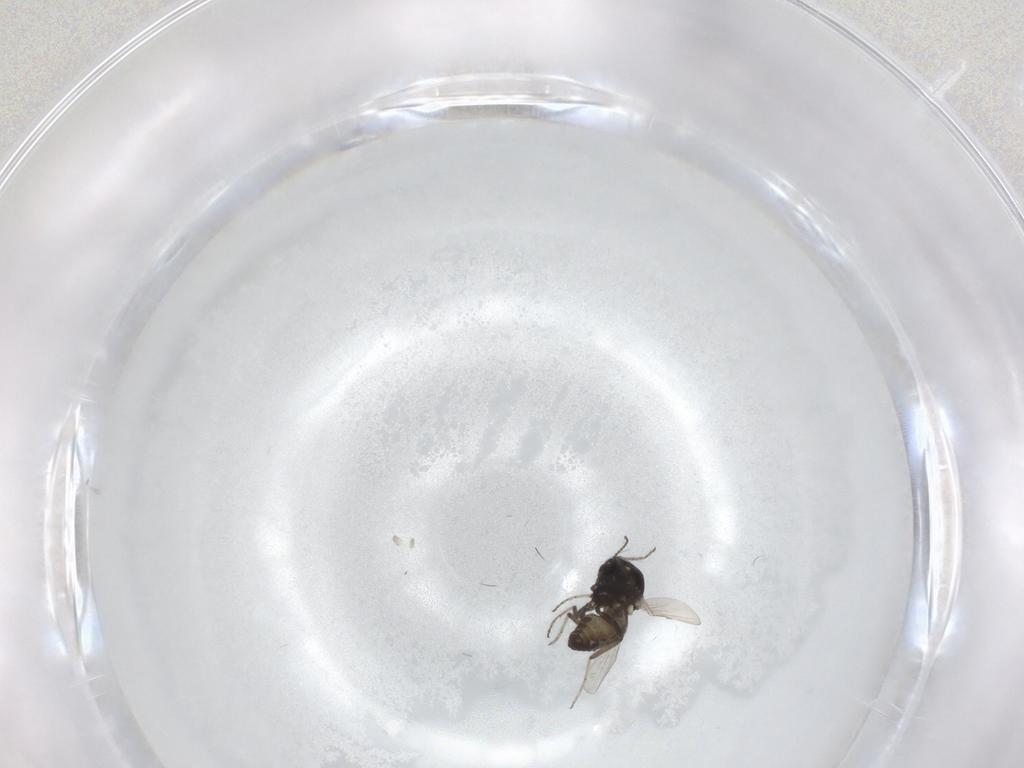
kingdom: Animalia
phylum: Arthropoda
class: Insecta
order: Diptera
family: Ceratopogonidae
